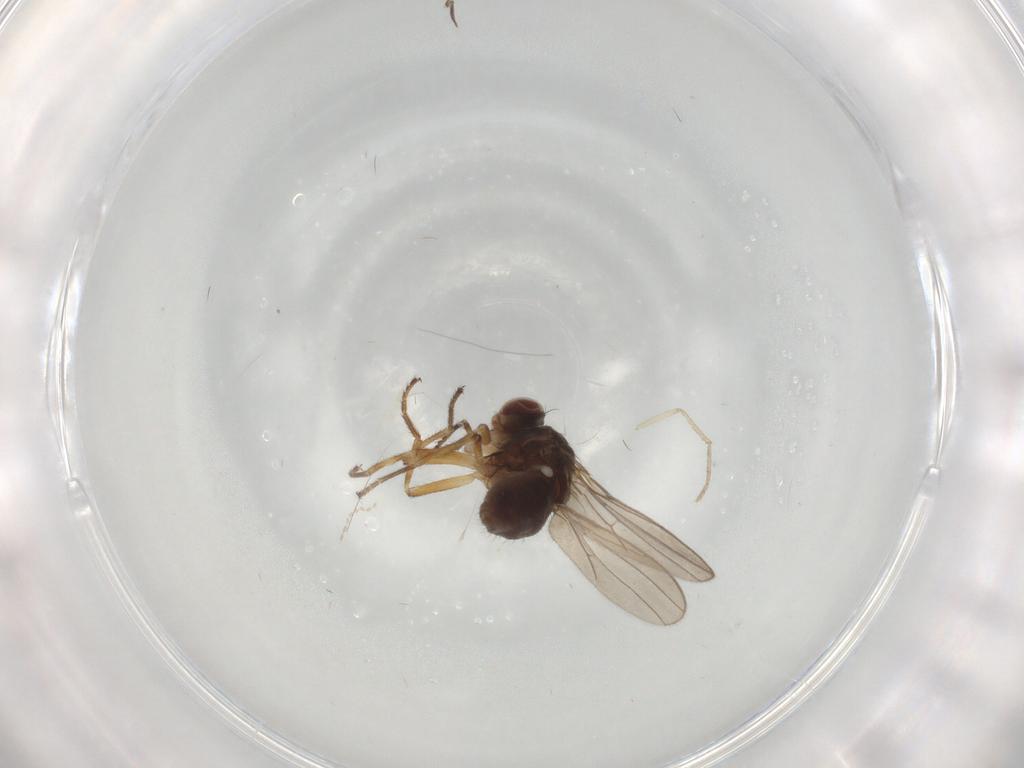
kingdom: Animalia
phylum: Arthropoda
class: Insecta
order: Diptera
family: Ephydridae
